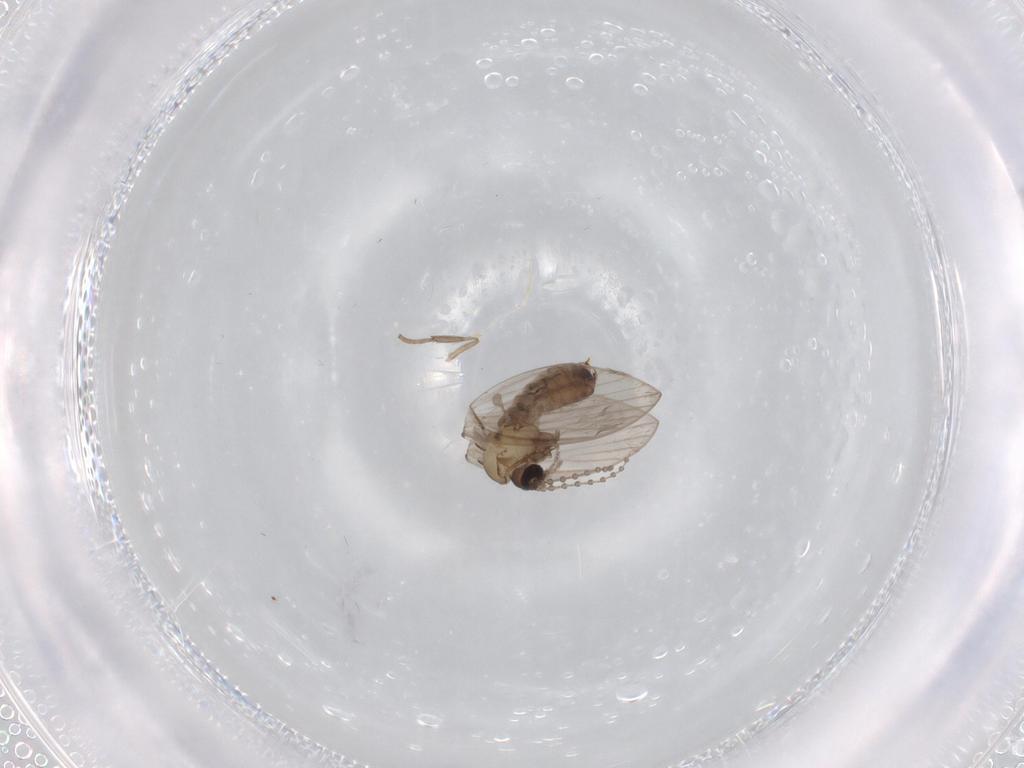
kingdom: Animalia
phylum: Arthropoda
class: Insecta
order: Diptera
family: Psychodidae
